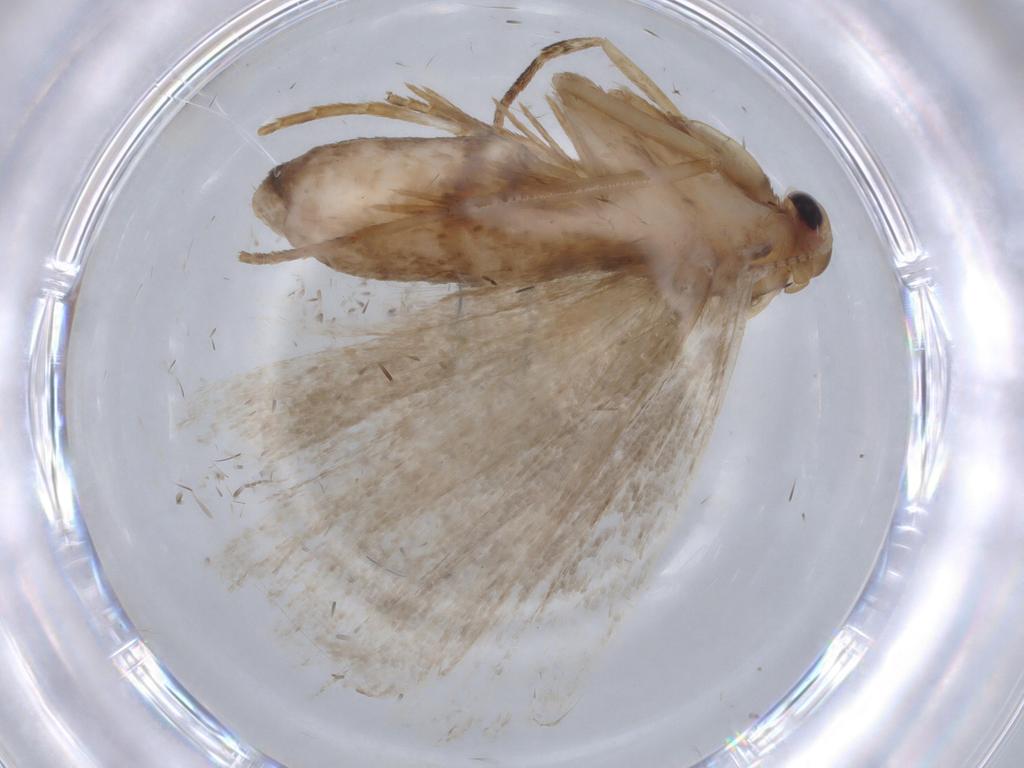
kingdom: Animalia
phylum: Arthropoda
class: Insecta
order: Lepidoptera
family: Erebidae
